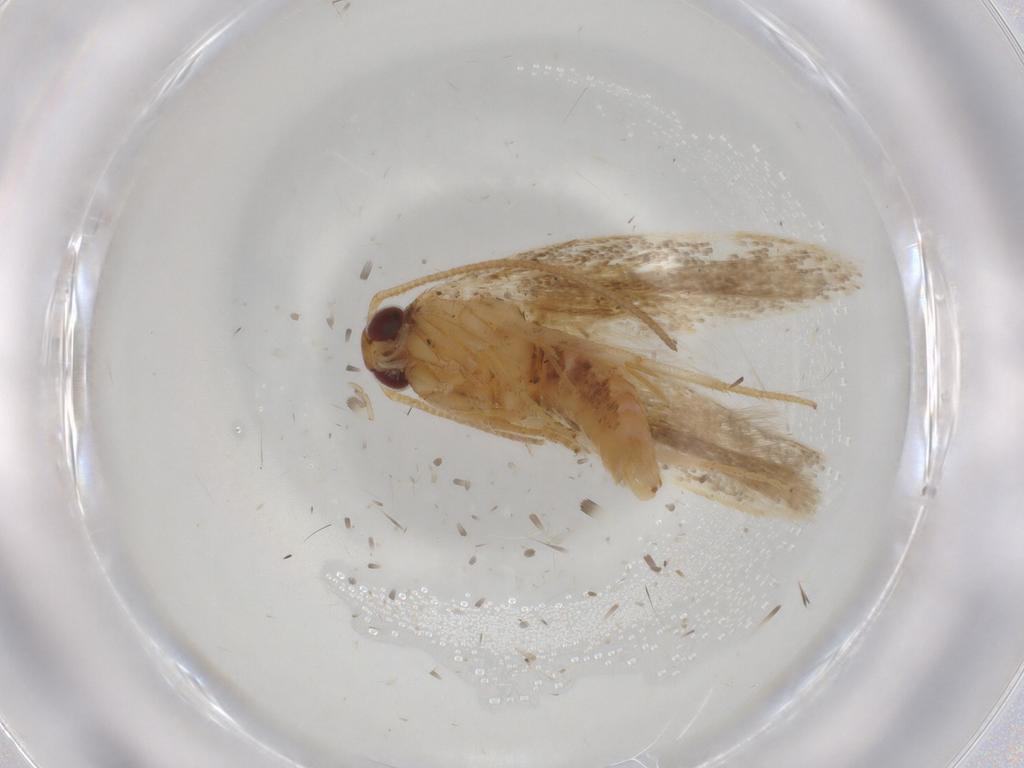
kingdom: Animalia
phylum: Arthropoda
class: Insecta
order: Lepidoptera
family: Gelechiidae
